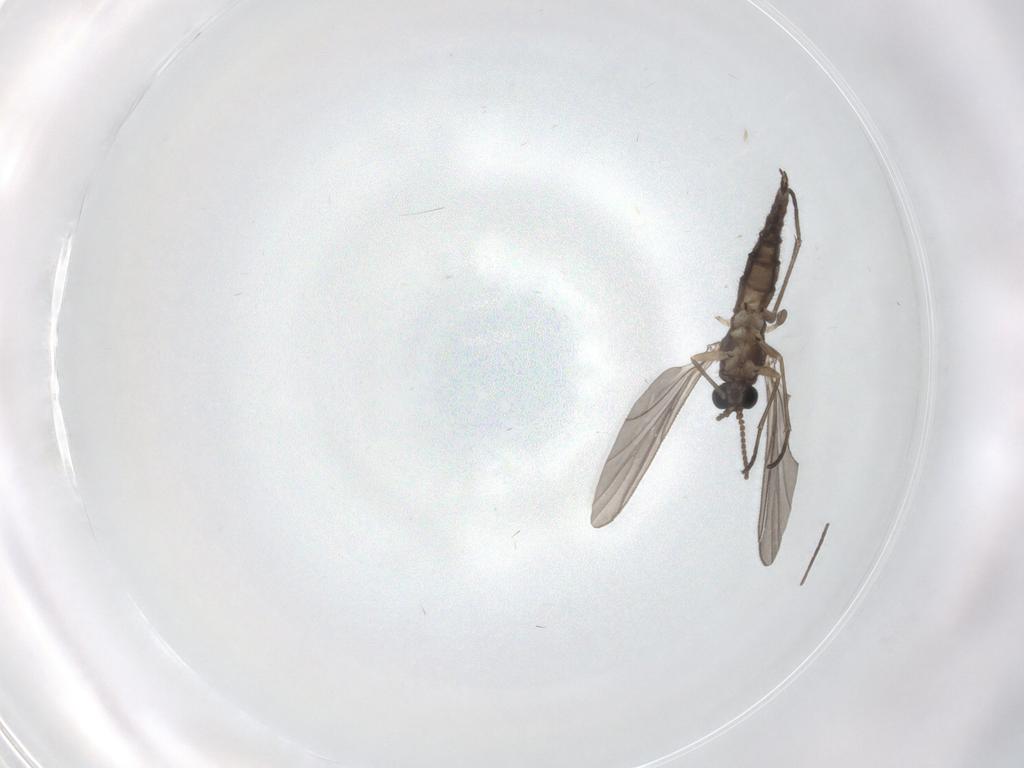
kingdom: Animalia
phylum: Arthropoda
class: Insecta
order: Diptera
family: Sciaridae
